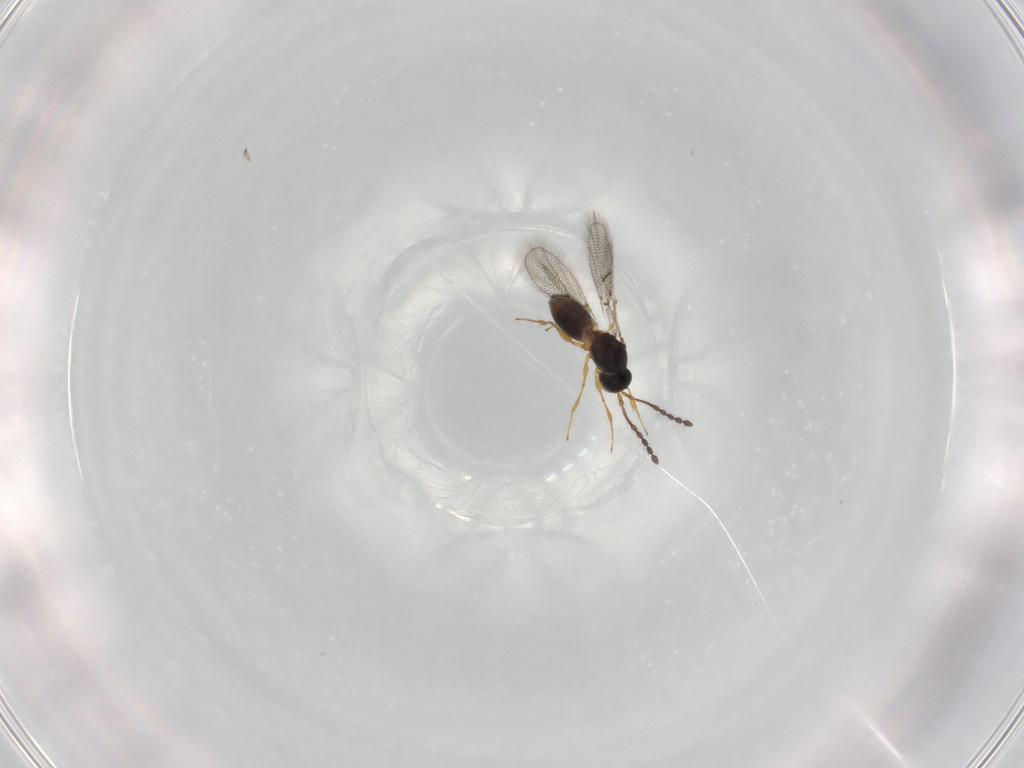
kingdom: Animalia
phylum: Arthropoda
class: Insecta
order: Hymenoptera
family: Figitidae
